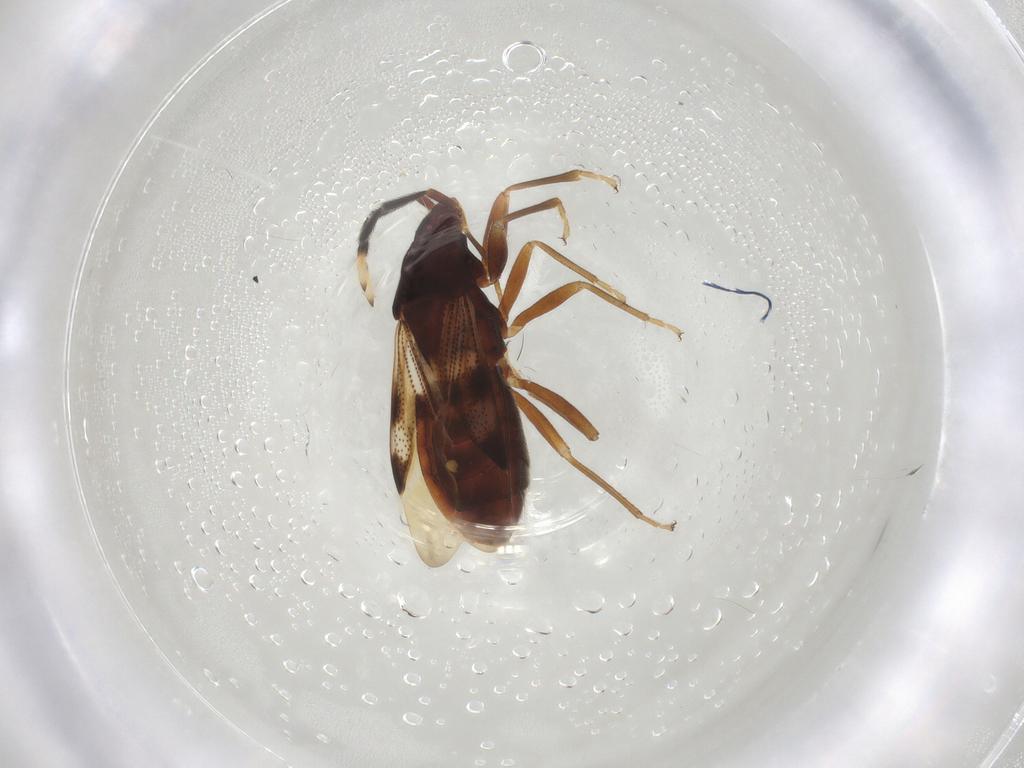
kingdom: Animalia
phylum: Arthropoda
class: Insecta
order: Hemiptera
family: Rhyparochromidae
